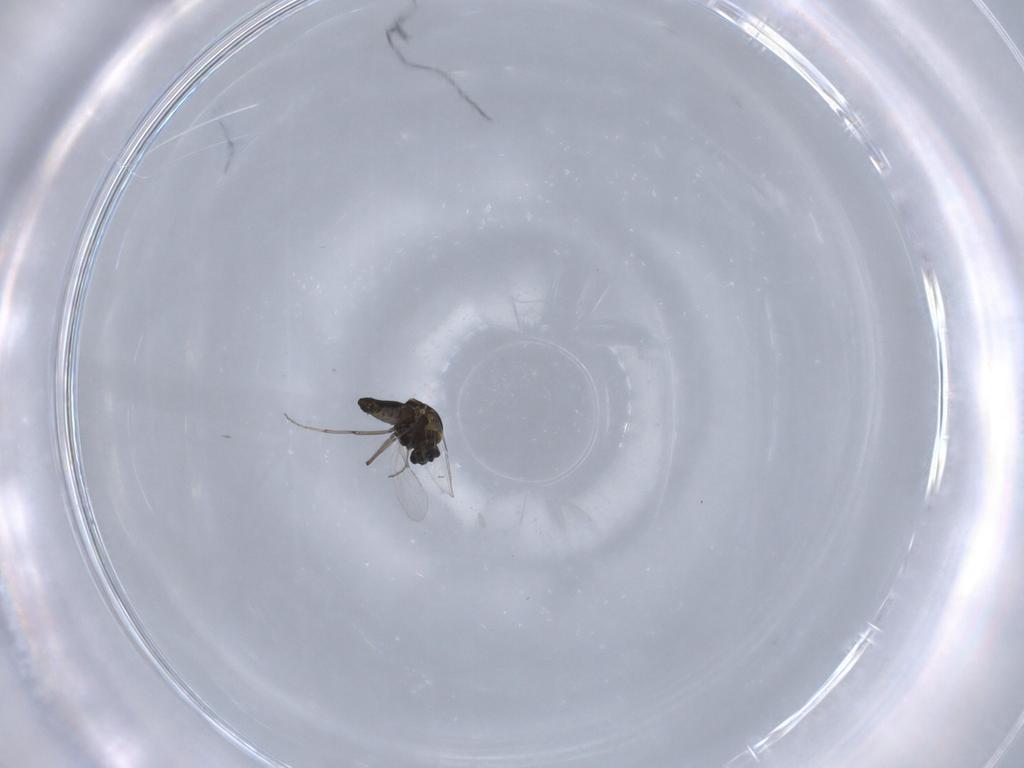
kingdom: Animalia
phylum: Arthropoda
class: Insecta
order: Diptera
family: Ceratopogonidae
